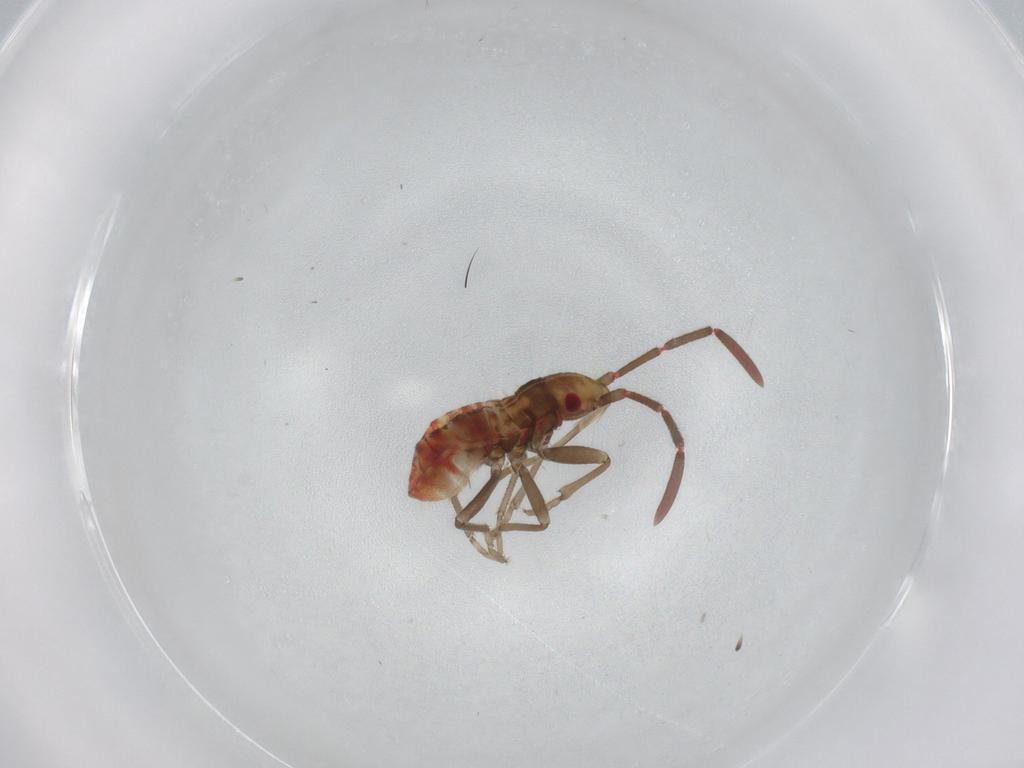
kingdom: Animalia
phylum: Arthropoda
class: Insecta
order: Hemiptera
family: Rhyparochromidae
